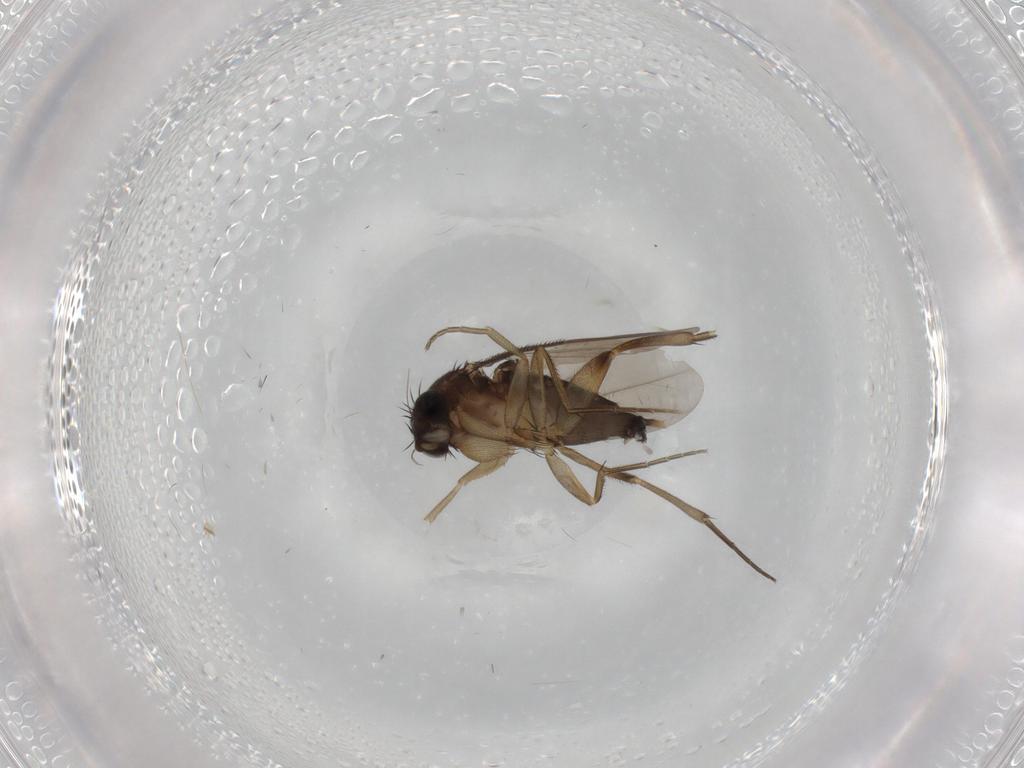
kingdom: Animalia
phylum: Arthropoda
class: Insecta
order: Diptera
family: Phoridae
